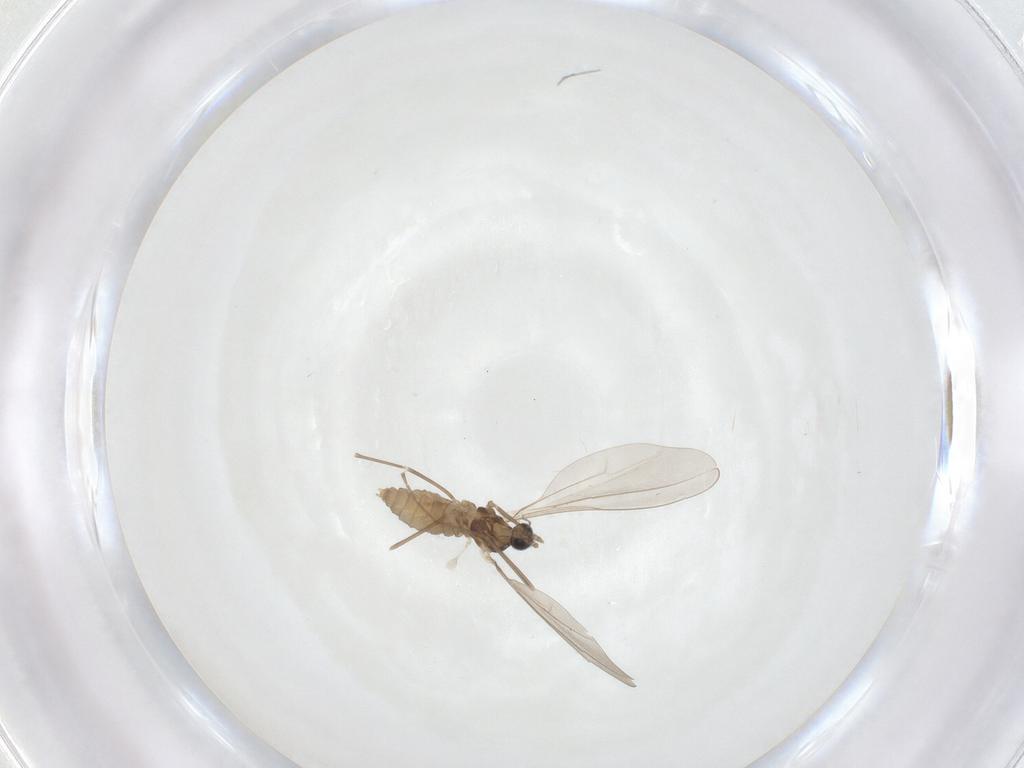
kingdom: Animalia
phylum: Arthropoda
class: Insecta
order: Diptera
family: Cecidomyiidae
